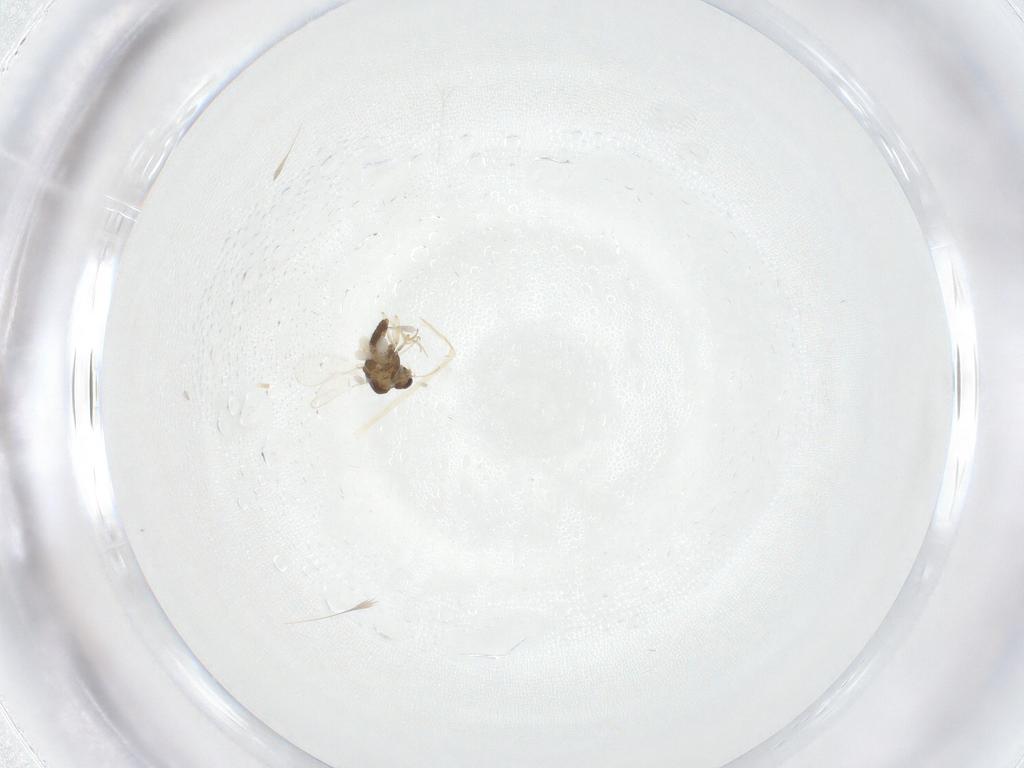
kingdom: Animalia
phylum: Arthropoda
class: Insecta
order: Diptera
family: Chironomidae
